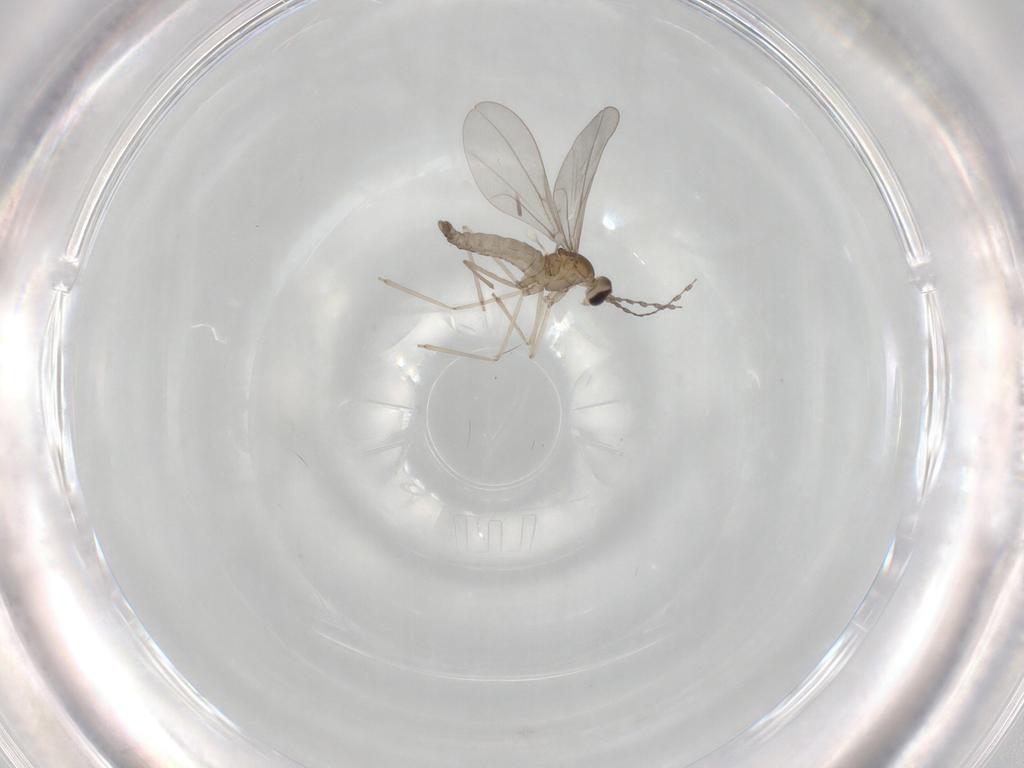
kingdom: Animalia
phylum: Arthropoda
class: Insecta
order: Diptera
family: Cecidomyiidae
